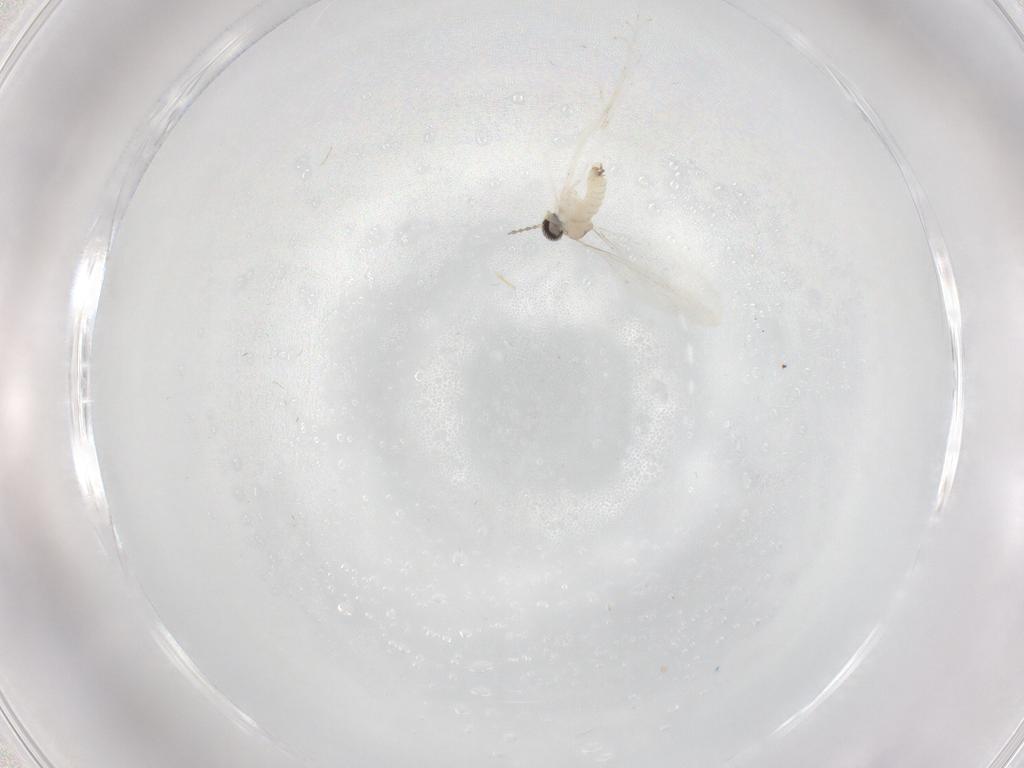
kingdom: Animalia
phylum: Arthropoda
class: Insecta
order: Diptera
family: Cecidomyiidae
